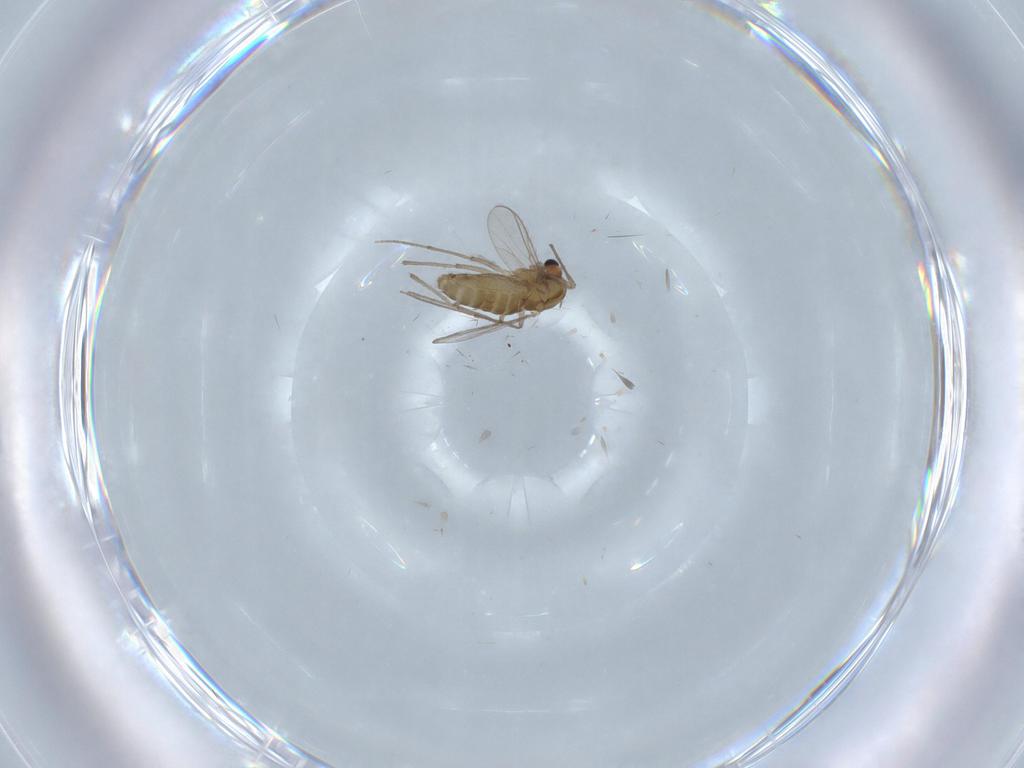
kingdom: Animalia
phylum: Arthropoda
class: Insecta
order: Diptera
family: Chironomidae
